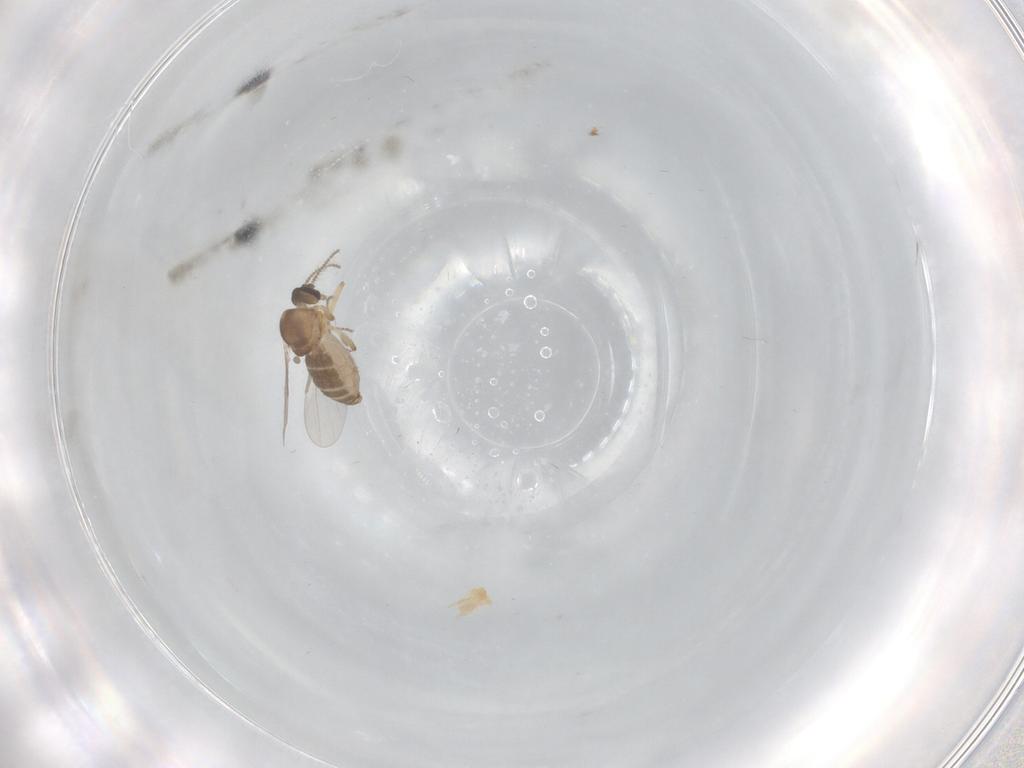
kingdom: Animalia
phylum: Arthropoda
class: Insecta
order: Diptera
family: Ceratopogonidae
